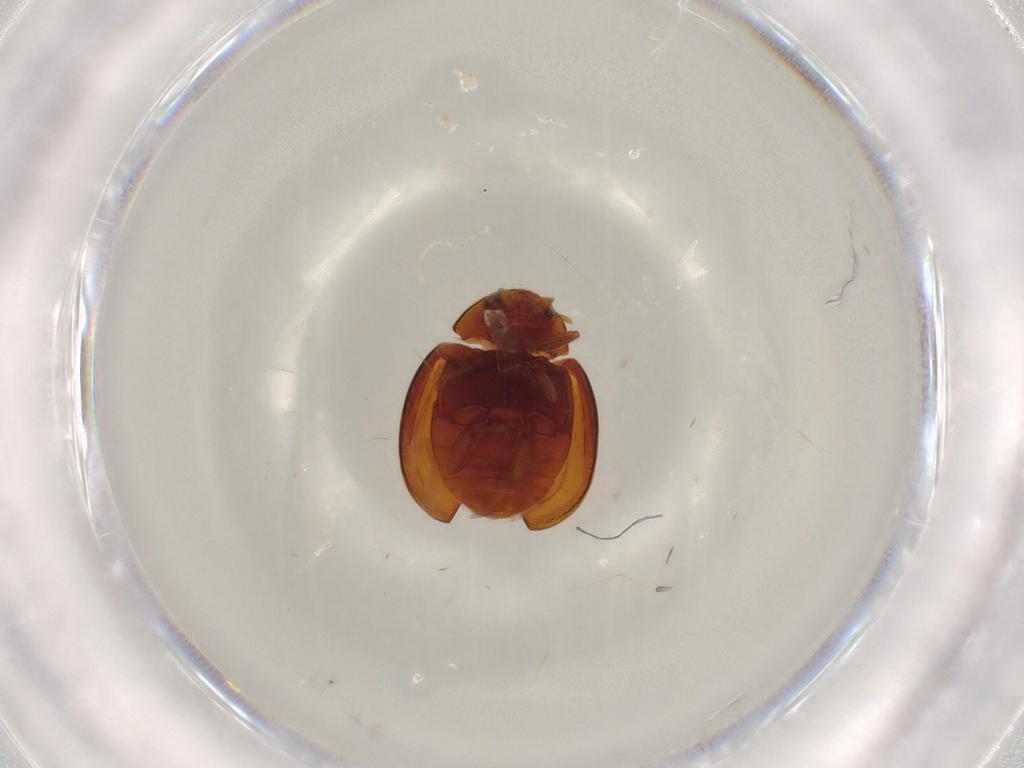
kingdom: Animalia
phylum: Arthropoda
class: Insecta
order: Coleoptera
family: Coccinellidae
